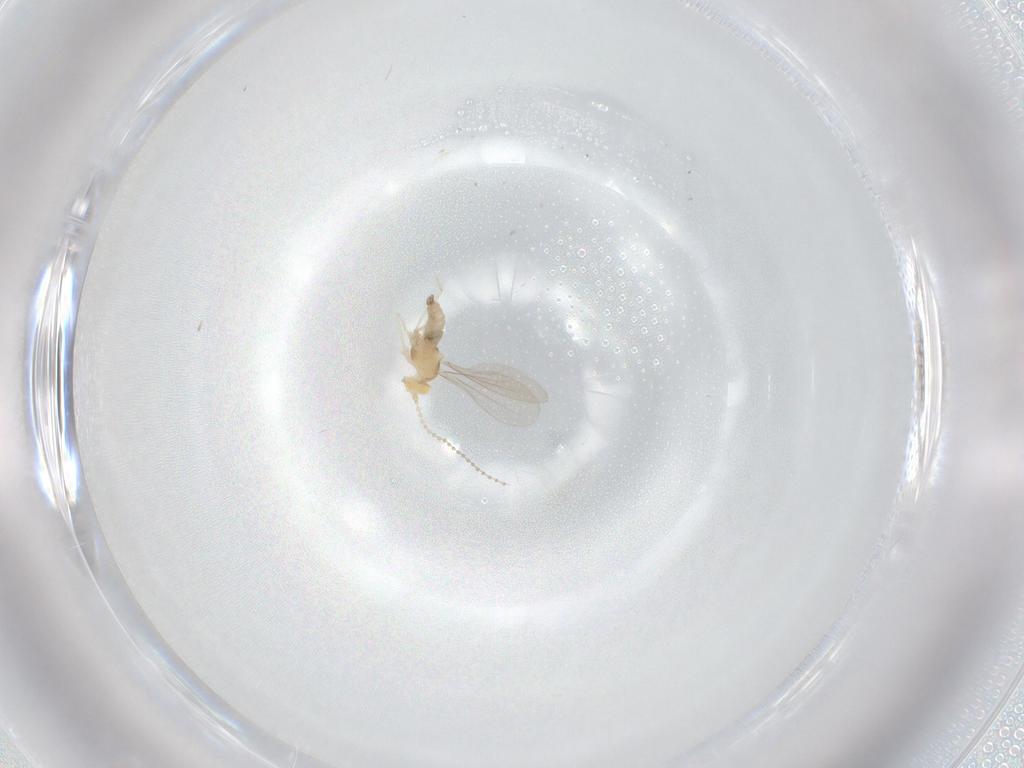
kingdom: Animalia
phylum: Arthropoda
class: Insecta
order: Diptera
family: Cecidomyiidae
